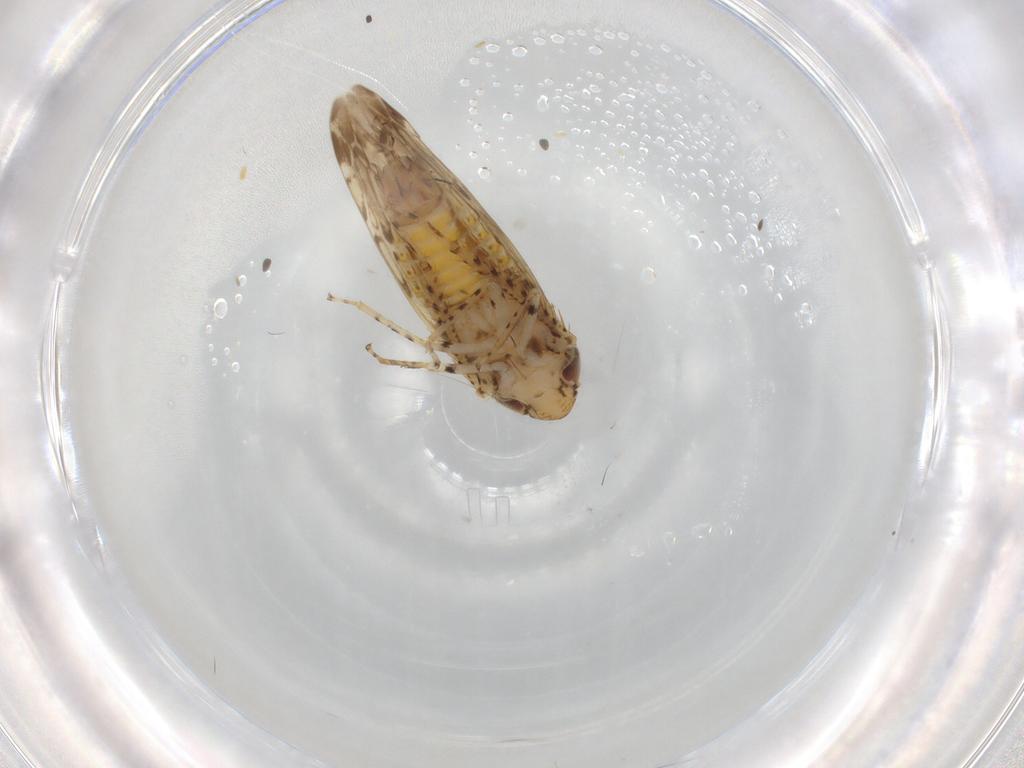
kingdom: Animalia
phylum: Arthropoda
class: Insecta
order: Hemiptera
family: Cicadellidae
